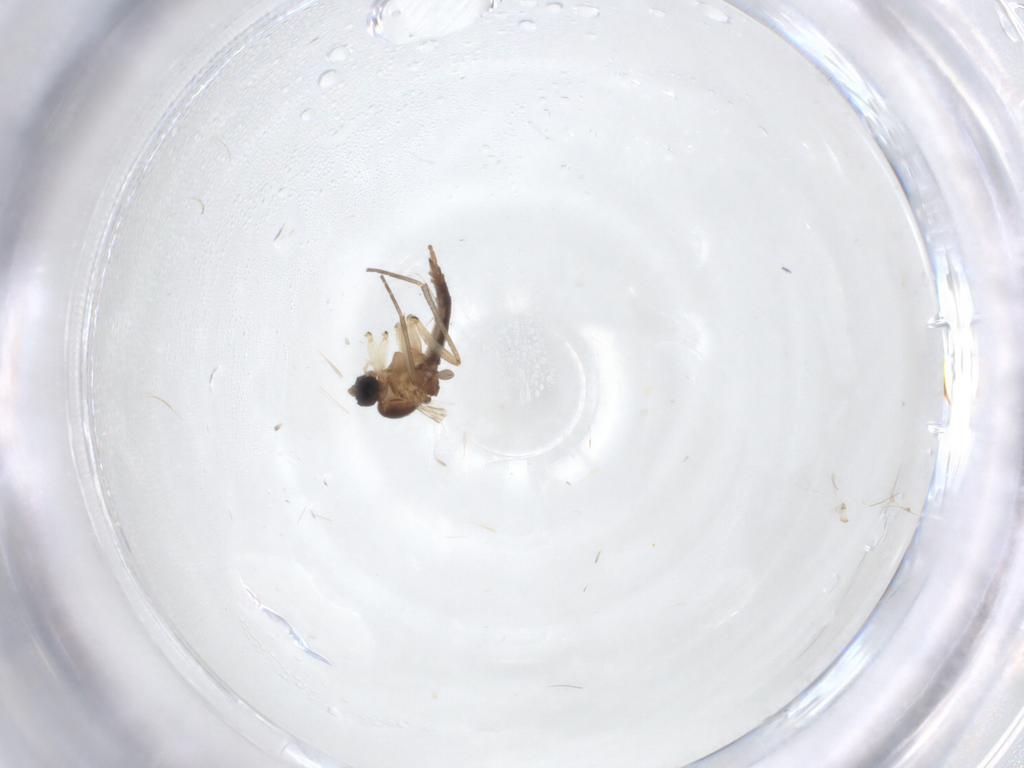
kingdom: Animalia
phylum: Arthropoda
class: Insecta
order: Diptera
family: Sciaridae
